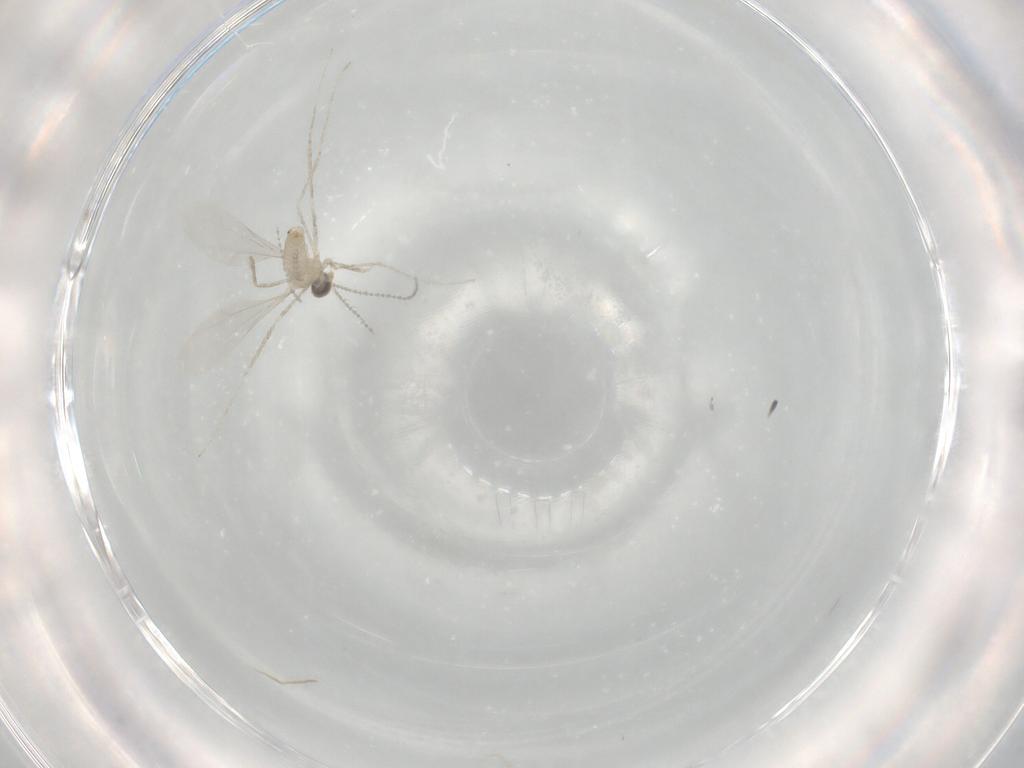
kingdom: Animalia
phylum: Arthropoda
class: Insecta
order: Diptera
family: Cecidomyiidae
